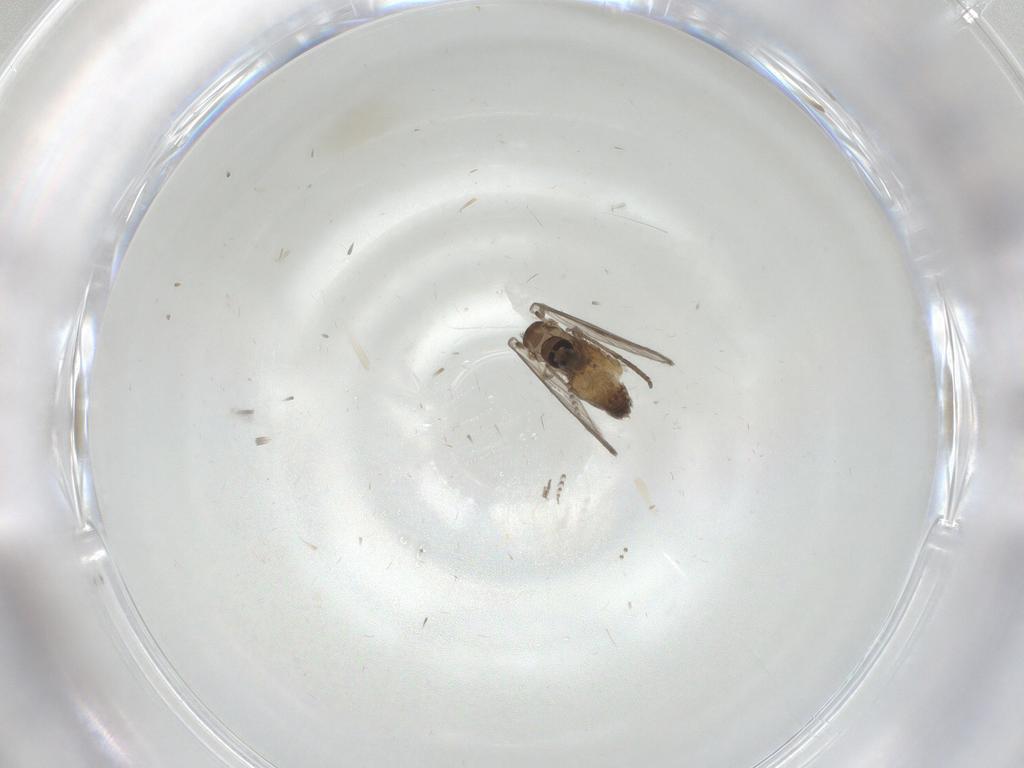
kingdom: Animalia
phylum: Arthropoda
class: Insecta
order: Diptera
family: Psychodidae
